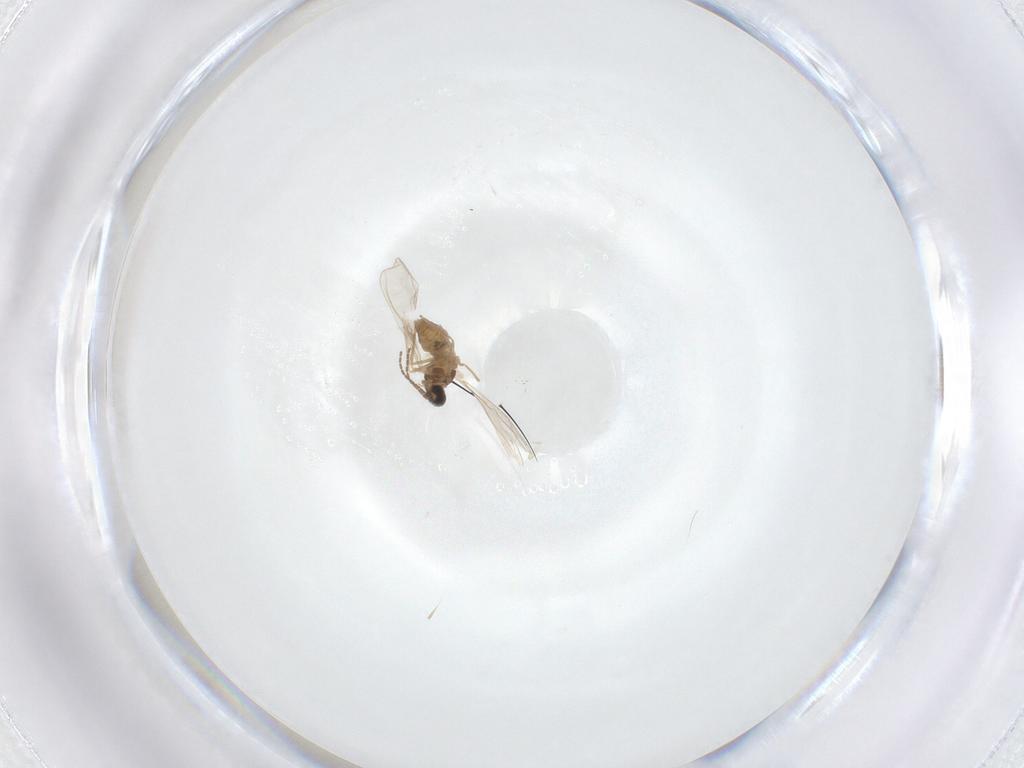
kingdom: Animalia
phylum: Arthropoda
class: Insecta
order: Diptera
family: Cecidomyiidae
